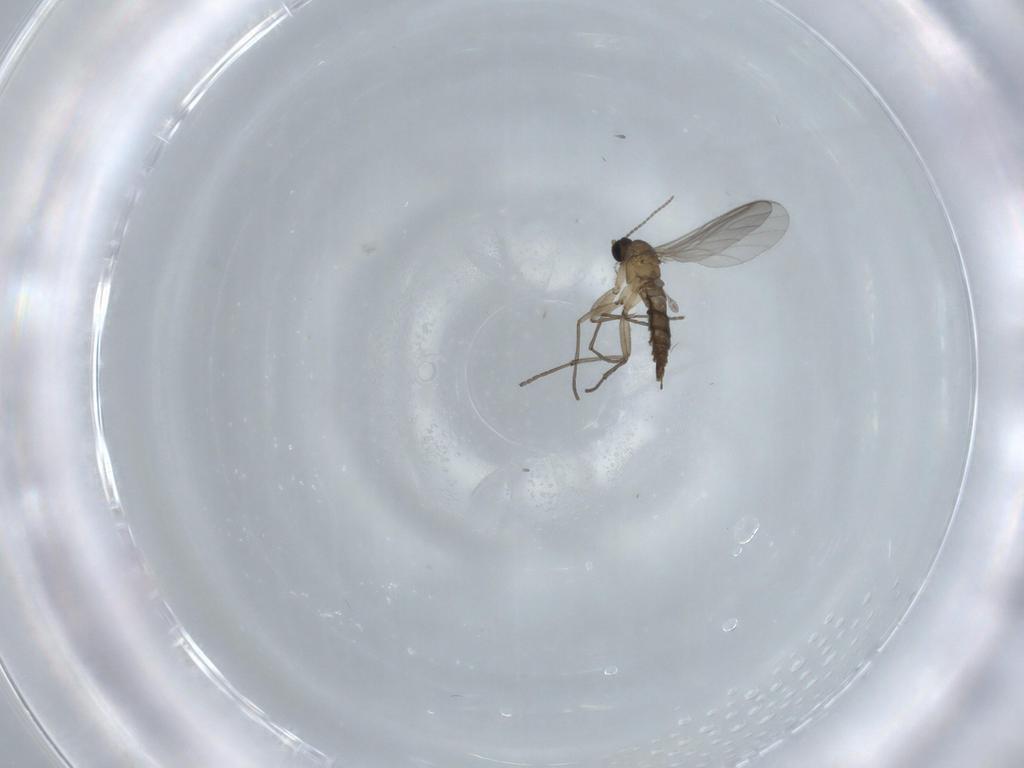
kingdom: Animalia
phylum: Arthropoda
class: Insecta
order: Diptera
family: Sciaridae
